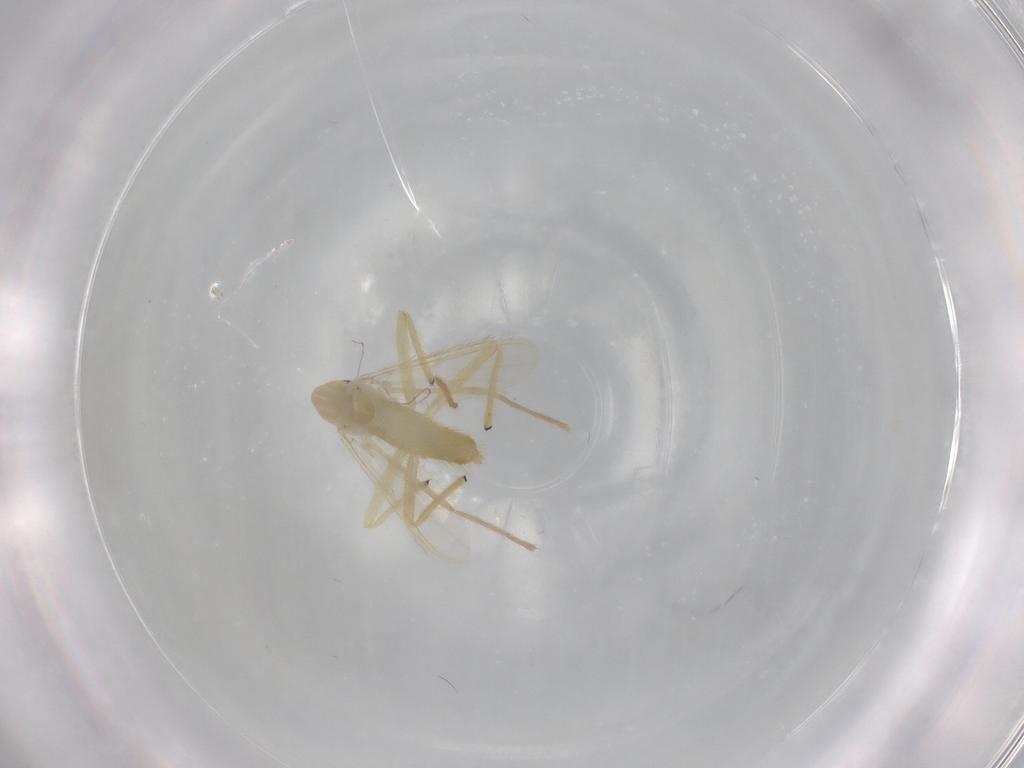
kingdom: Animalia
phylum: Arthropoda
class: Insecta
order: Diptera
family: Chironomidae
